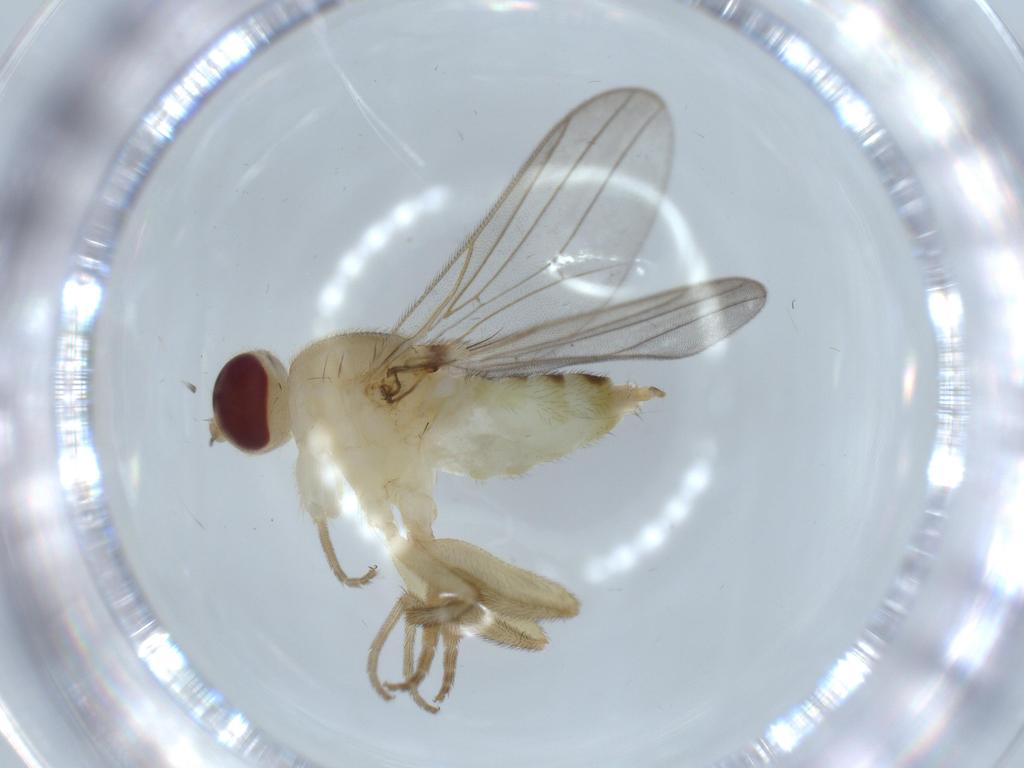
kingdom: Animalia
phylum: Arthropoda
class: Insecta
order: Diptera
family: Chloropidae
